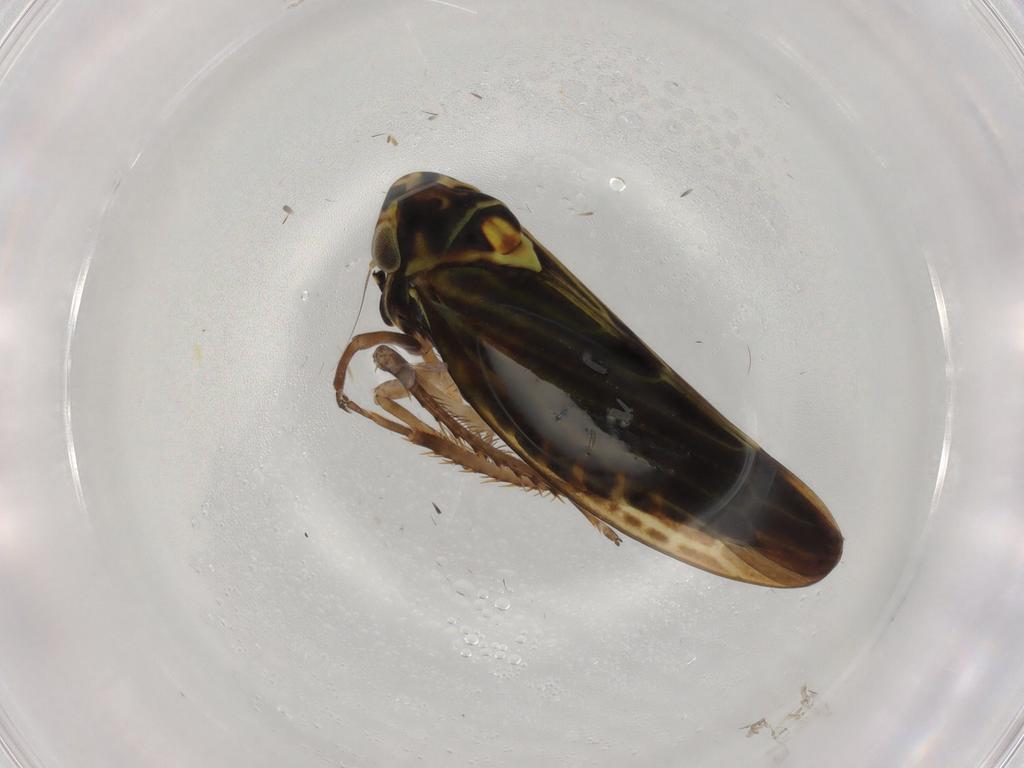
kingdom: Animalia
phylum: Arthropoda
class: Insecta
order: Hemiptera
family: Cicadellidae
